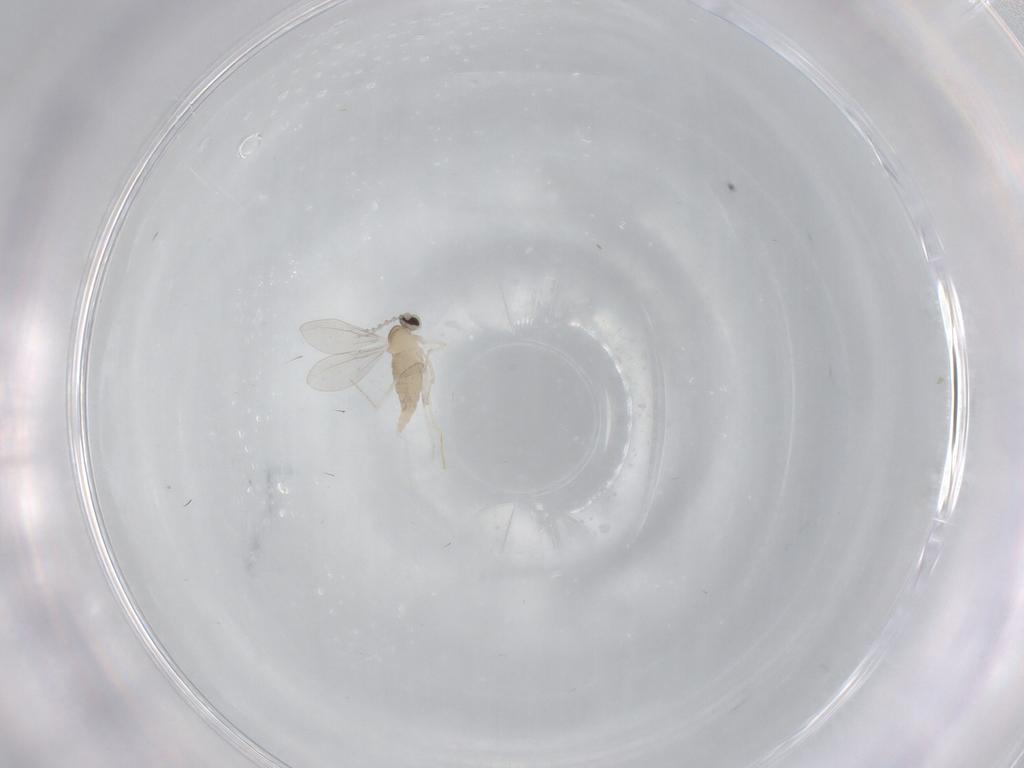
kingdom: Animalia
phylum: Arthropoda
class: Insecta
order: Diptera
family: Cecidomyiidae
